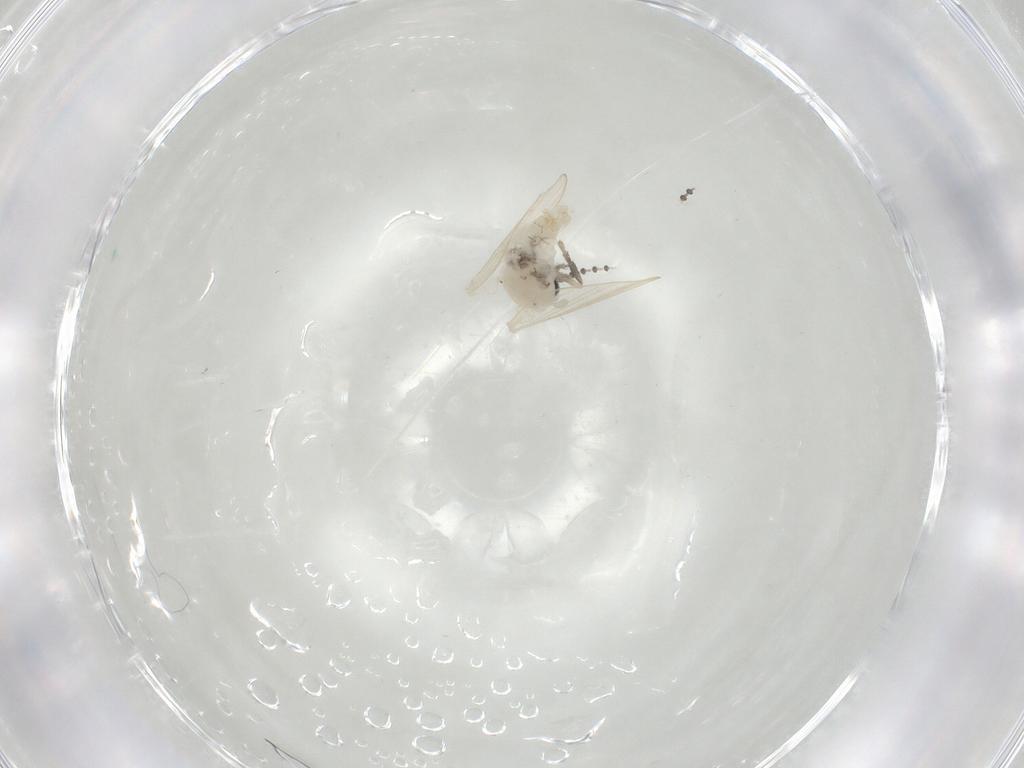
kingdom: Animalia
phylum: Arthropoda
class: Insecta
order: Diptera
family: Psychodidae
